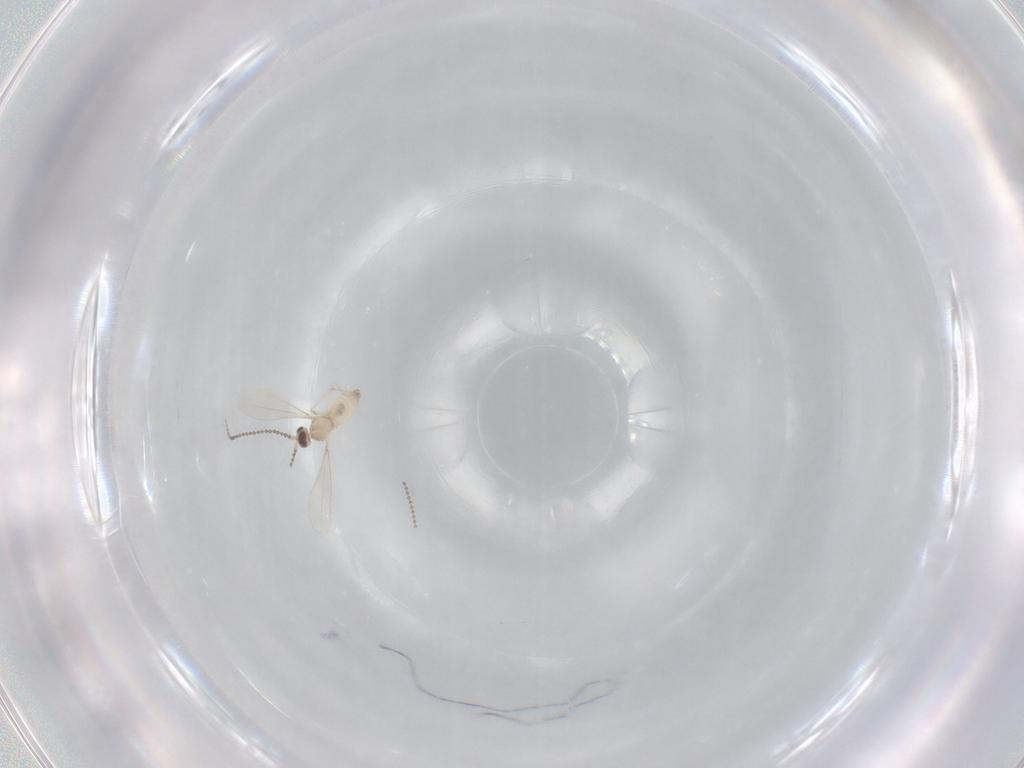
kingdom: Animalia
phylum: Arthropoda
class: Insecta
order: Diptera
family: Cecidomyiidae
